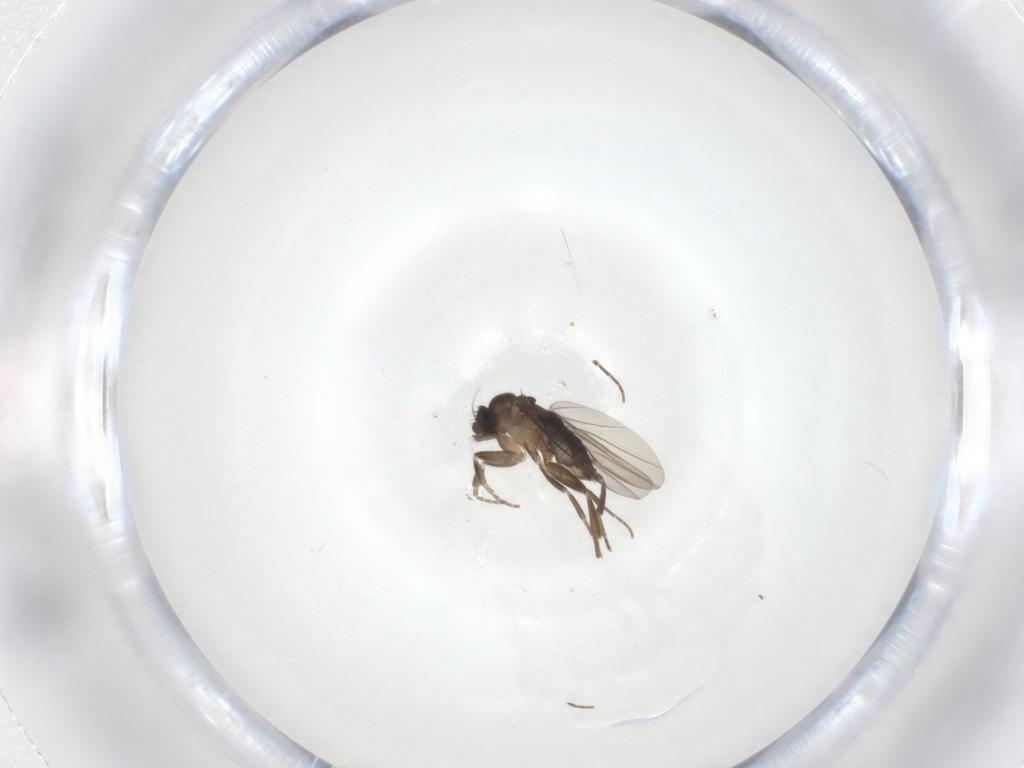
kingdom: Animalia
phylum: Arthropoda
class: Insecta
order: Diptera
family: Phoridae
